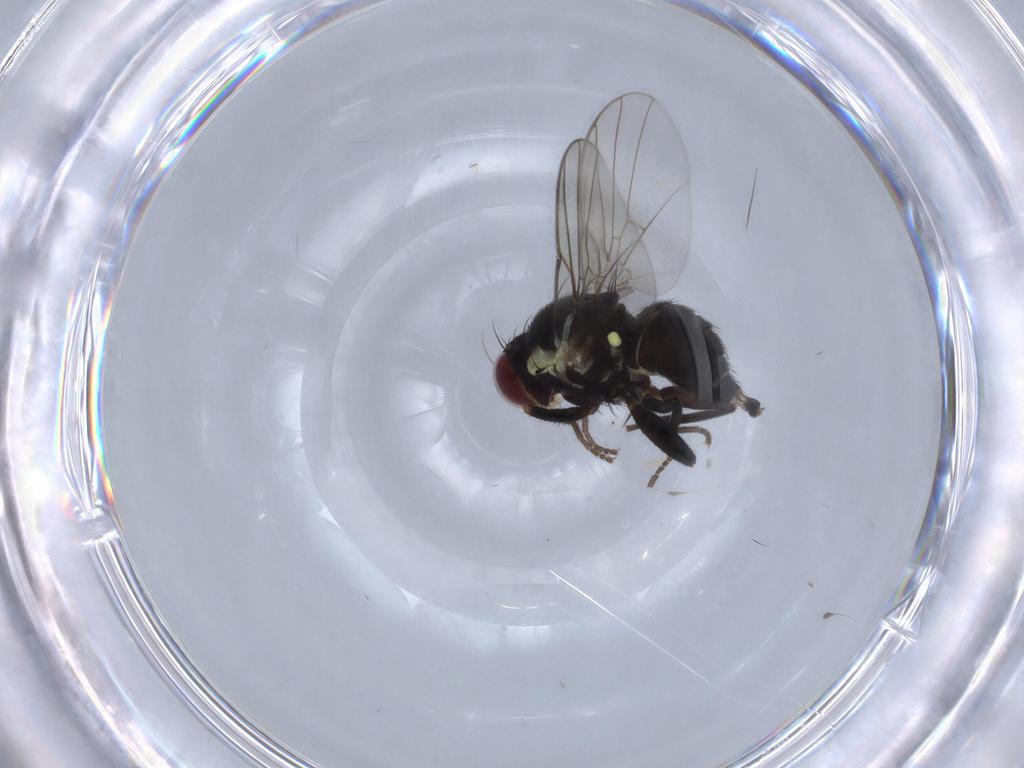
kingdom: Animalia
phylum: Arthropoda
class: Insecta
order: Diptera
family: Agromyzidae
